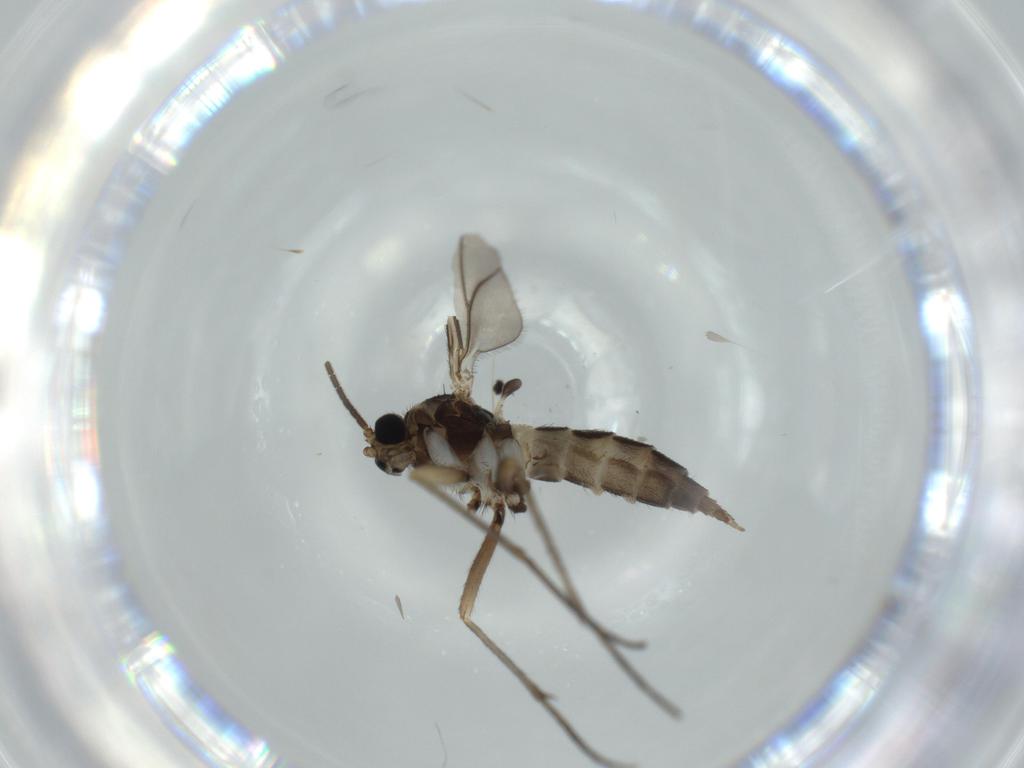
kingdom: Animalia
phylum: Arthropoda
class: Insecta
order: Diptera
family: Sciaridae
